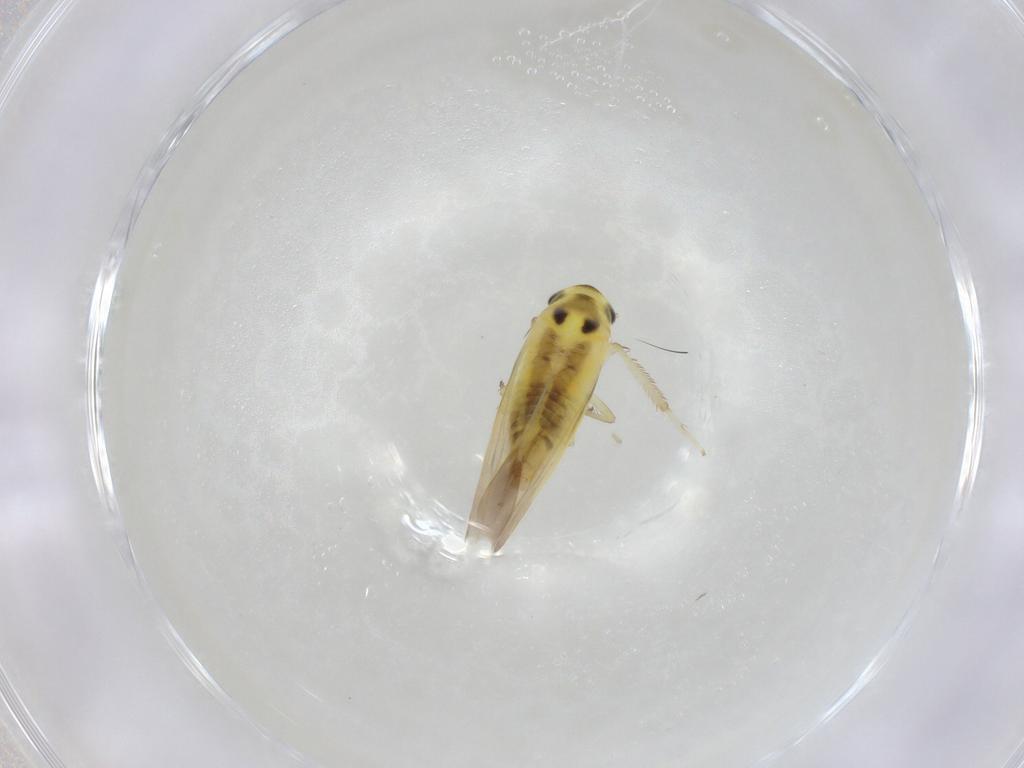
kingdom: Animalia
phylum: Arthropoda
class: Insecta
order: Hemiptera
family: Cicadellidae
